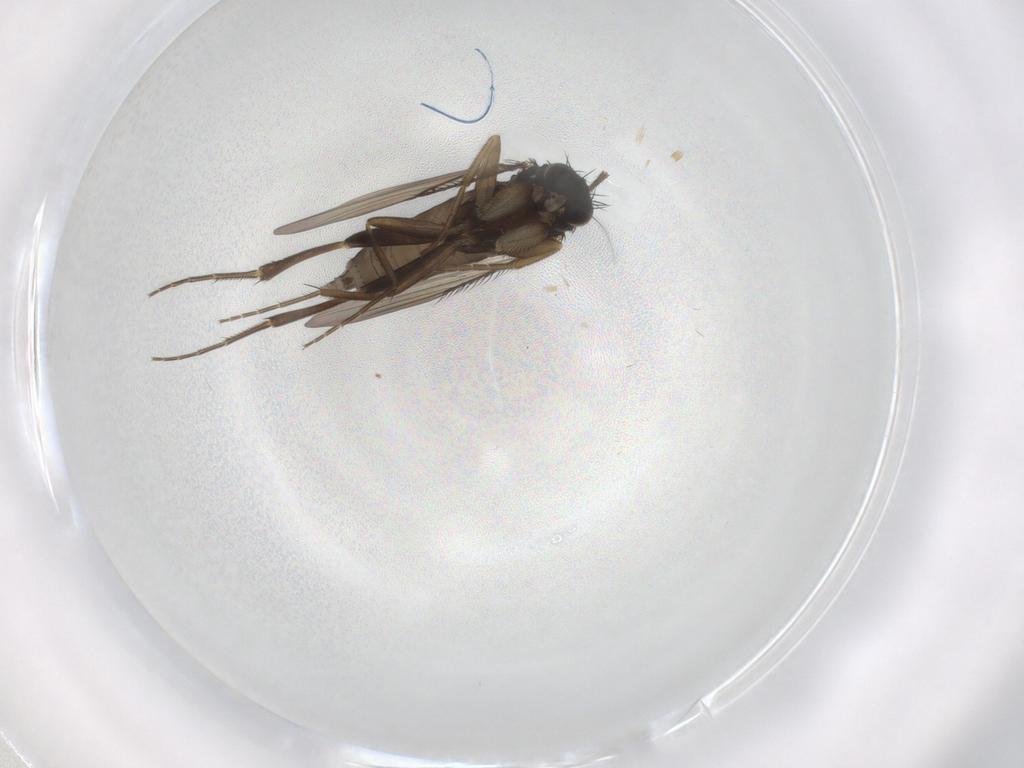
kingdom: Animalia
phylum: Arthropoda
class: Insecta
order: Diptera
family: Phoridae
